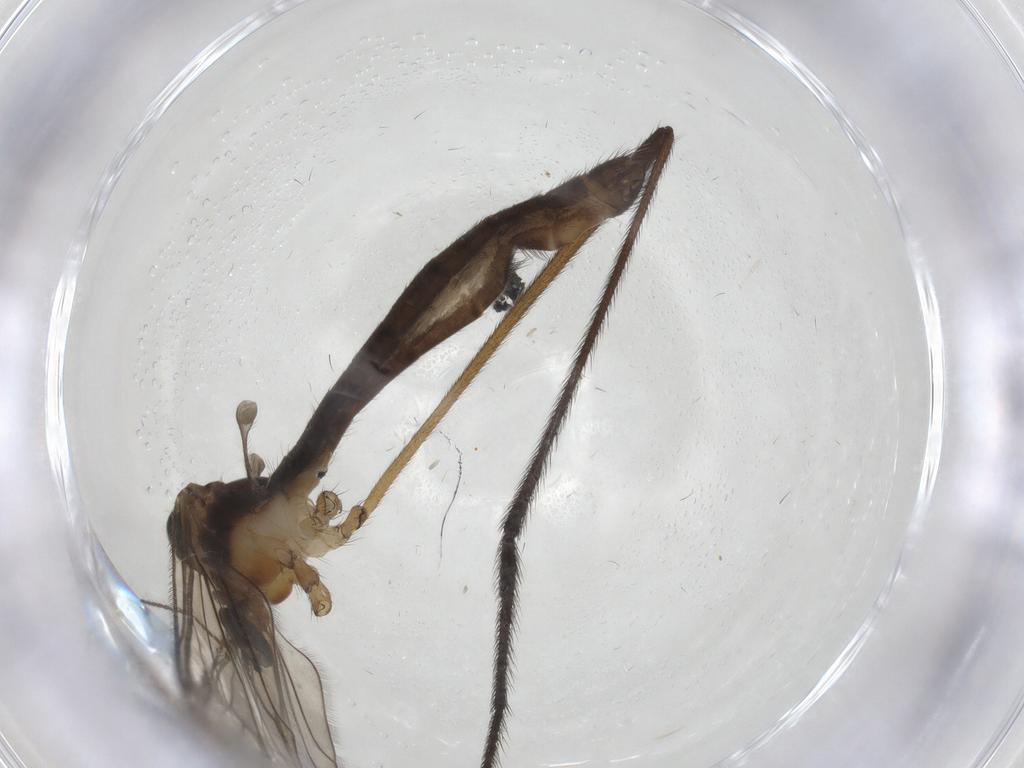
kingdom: Animalia
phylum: Arthropoda
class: Insecta
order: Diptera
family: Limoniidae
